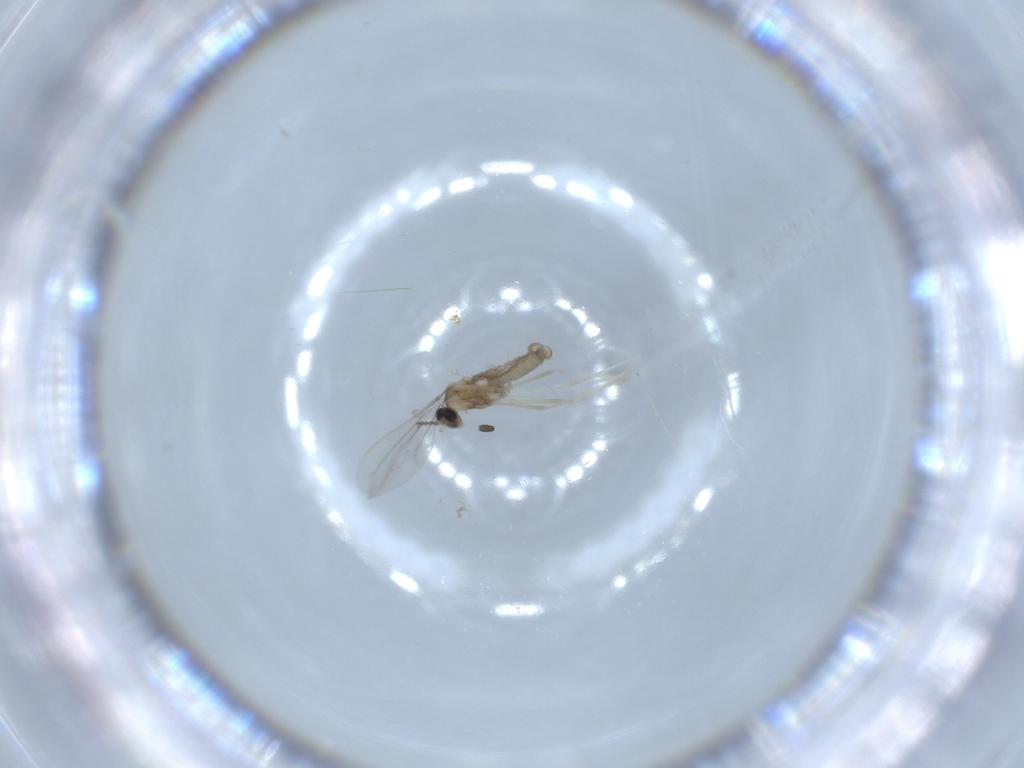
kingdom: Animalia
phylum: Arthropoda
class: Insecta
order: Diptera
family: Cecidomyiidae
